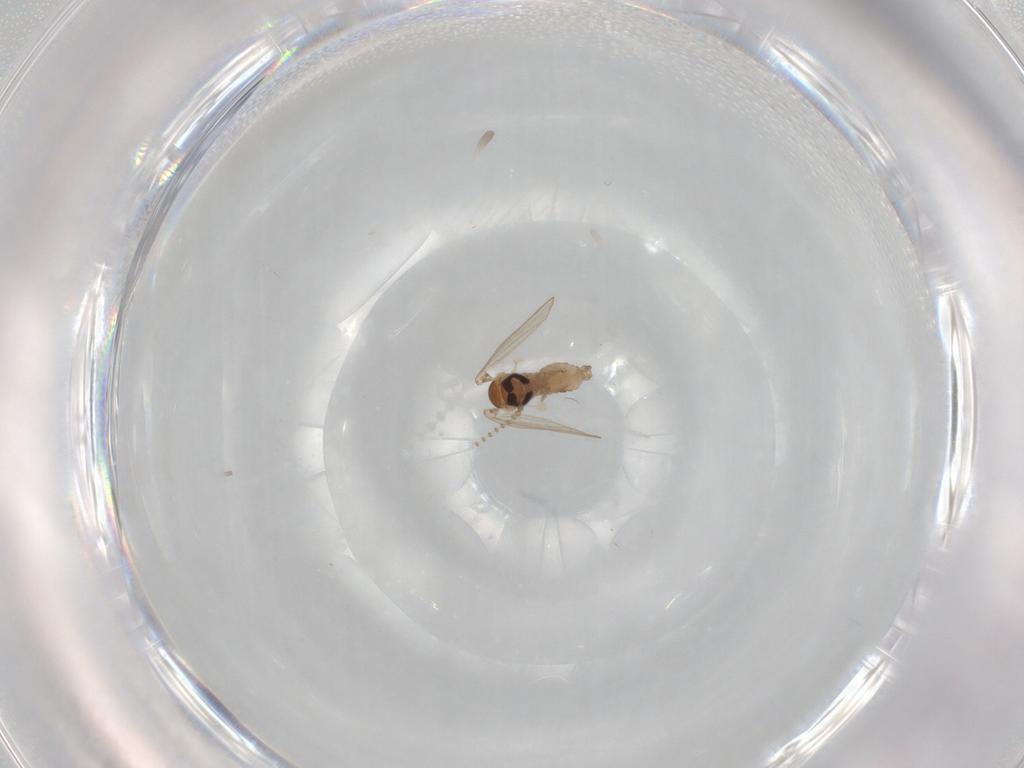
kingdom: Animalia
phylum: Arthropoda
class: Insecta
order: Diptera
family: Psychodidae
